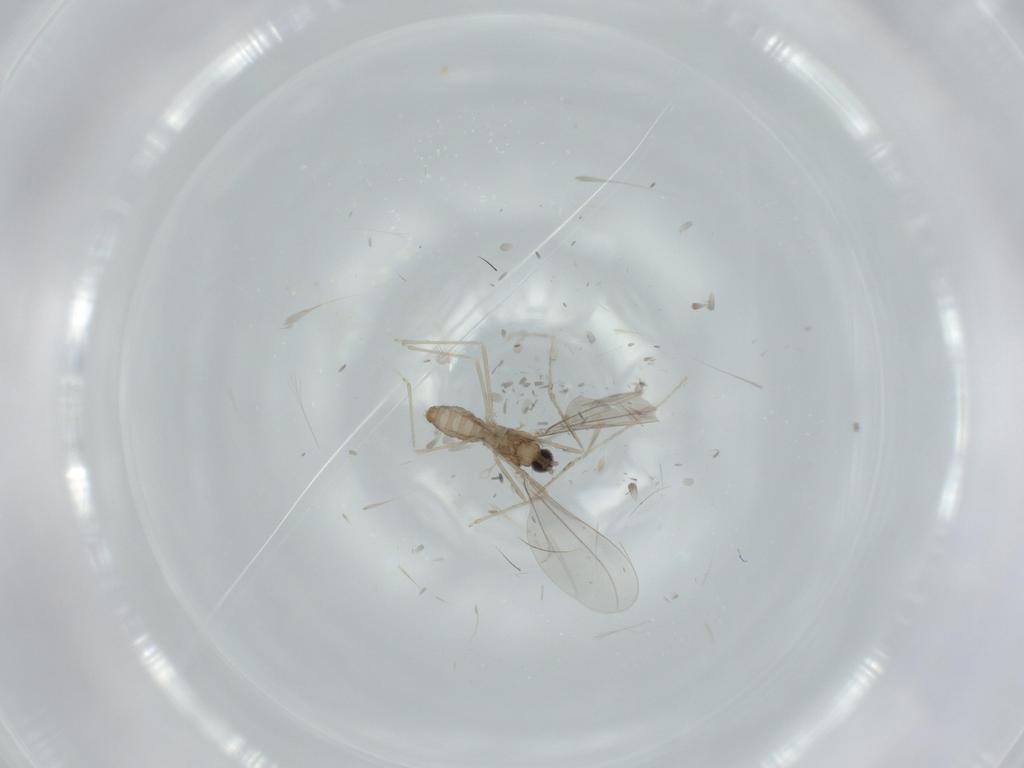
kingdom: Animalia
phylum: Arthropoda
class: Insecta
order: Diptera
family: Cecidomyiidae
